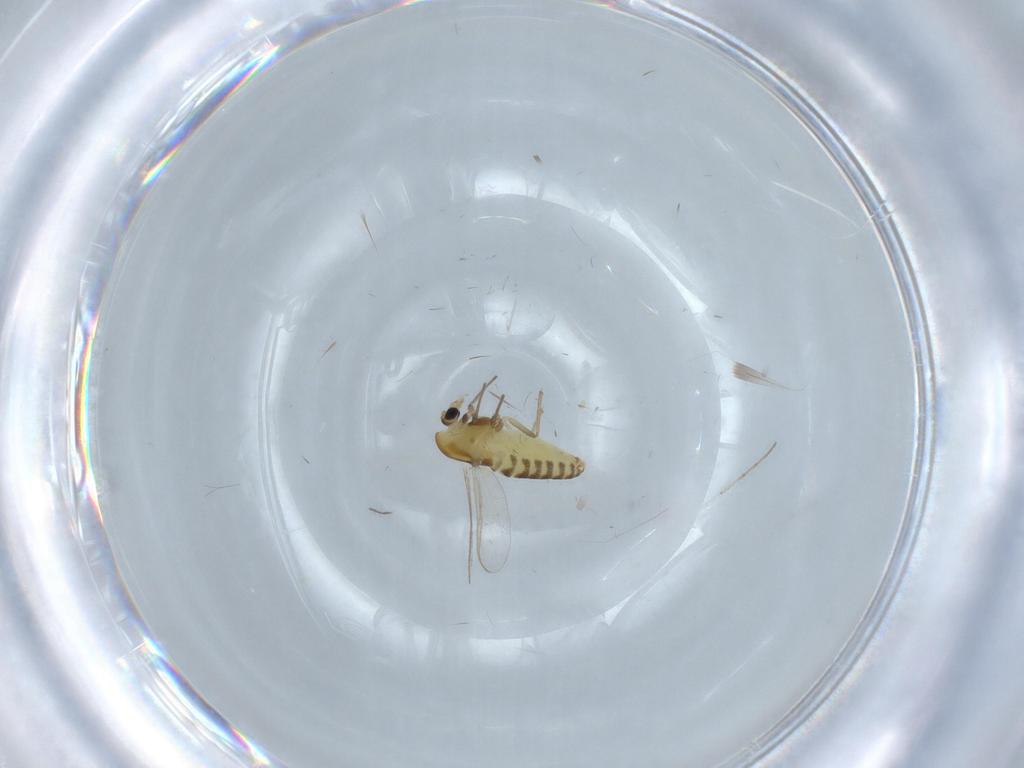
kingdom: Animalia
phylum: Arthropoda
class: Insecta
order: Diptera
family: Chironomidae
